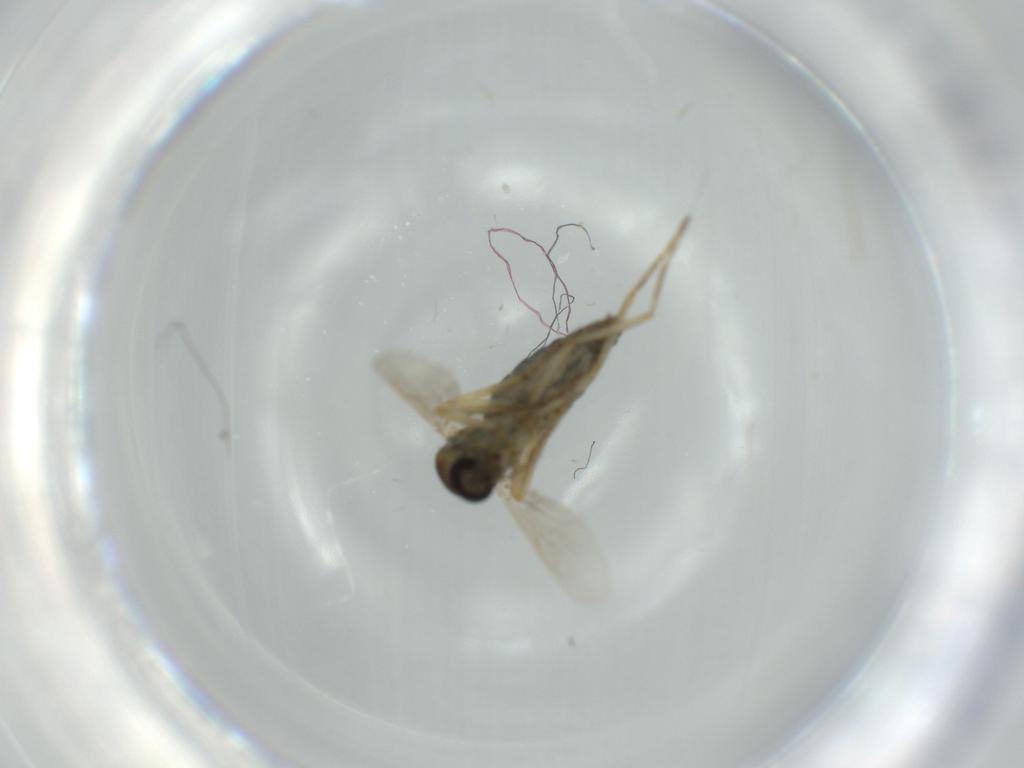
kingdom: Animalia
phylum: Arthropoda
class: Insecta
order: Diptera
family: Ceratopogonidae
